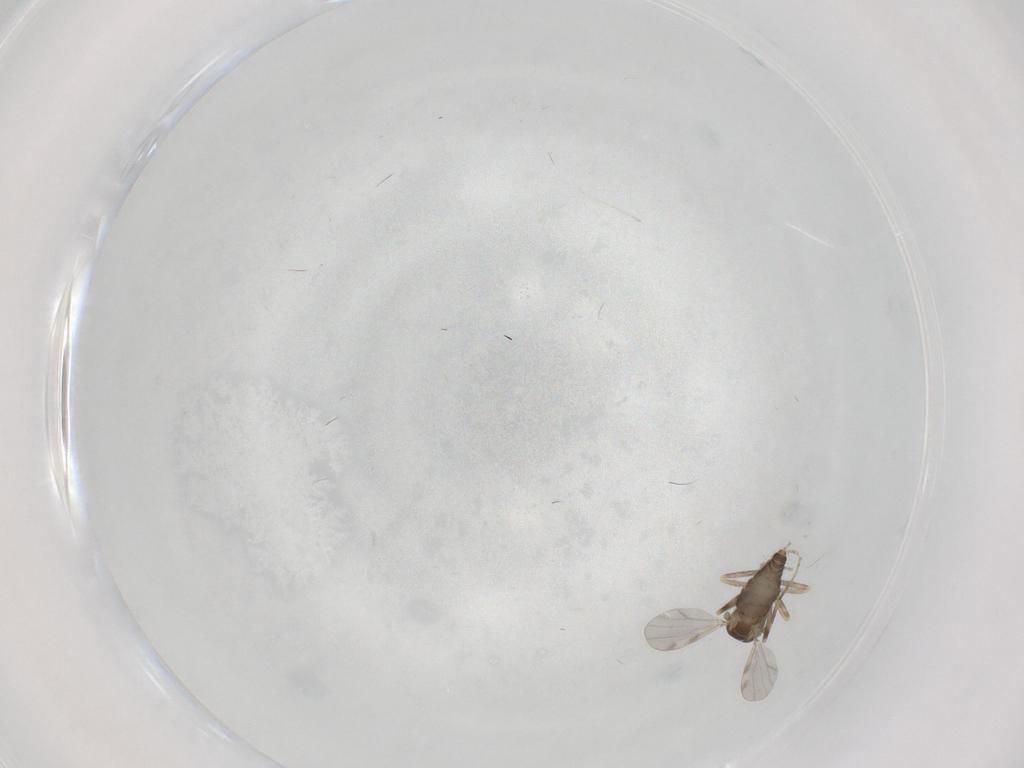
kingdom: Animalia
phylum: Arthropoda
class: Insecta
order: Diptera
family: Ceratopogonidae
